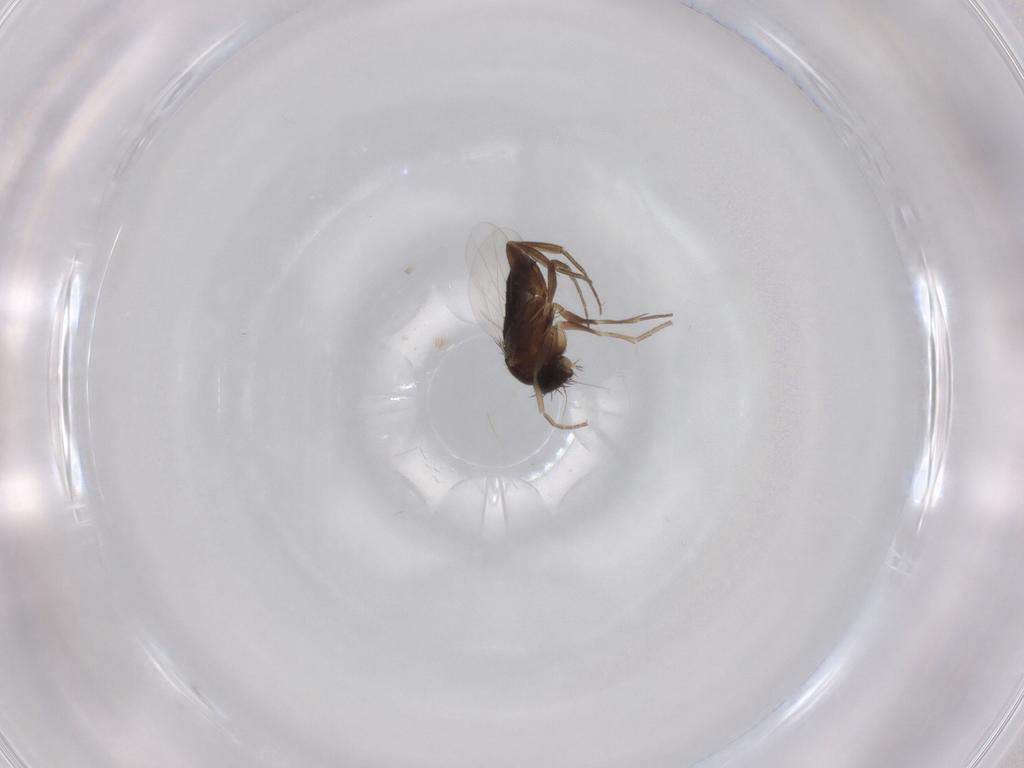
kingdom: Animalia
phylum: Arthropoda
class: Insecta
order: Diptera
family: Phoridae
